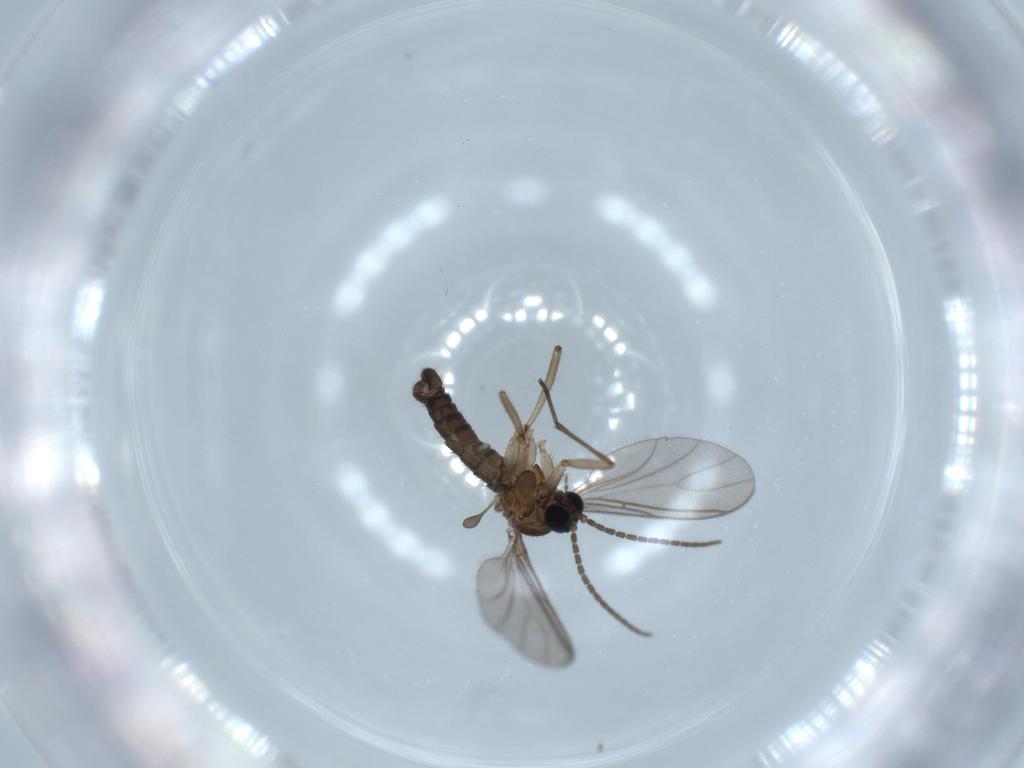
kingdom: Animalia
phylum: Arthropoda
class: Insecta
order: Diptera
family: Sciaridae
